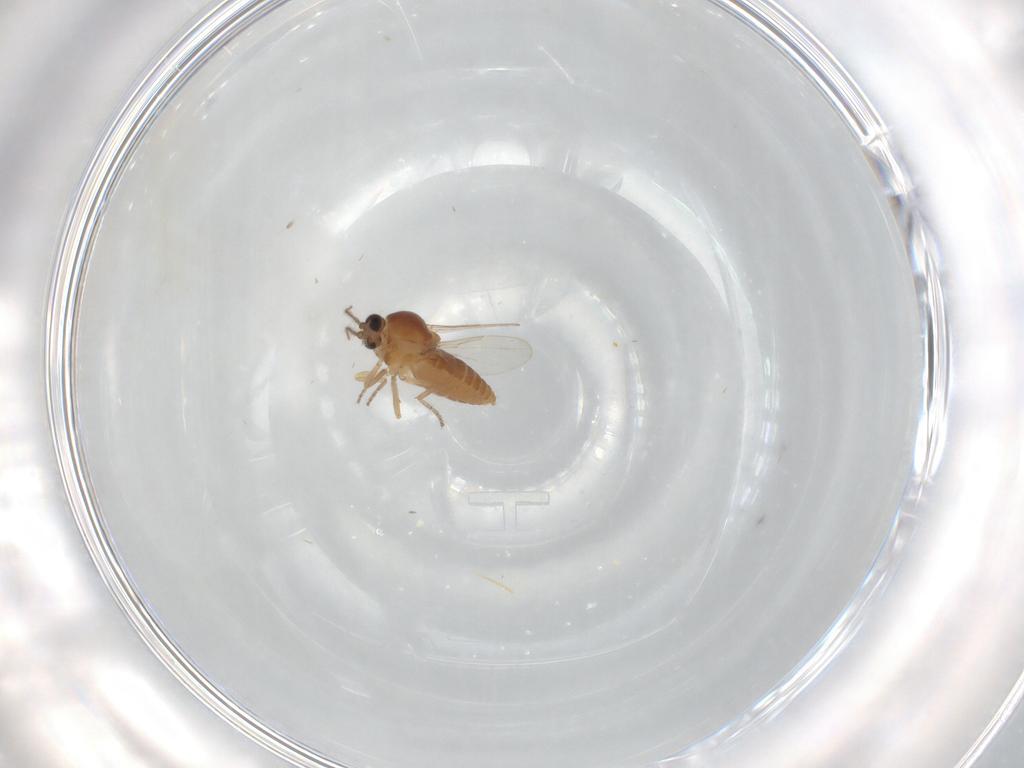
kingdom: Animalia
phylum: Arthropoda
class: Insecta
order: Diptera
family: Ceratopogonidae
